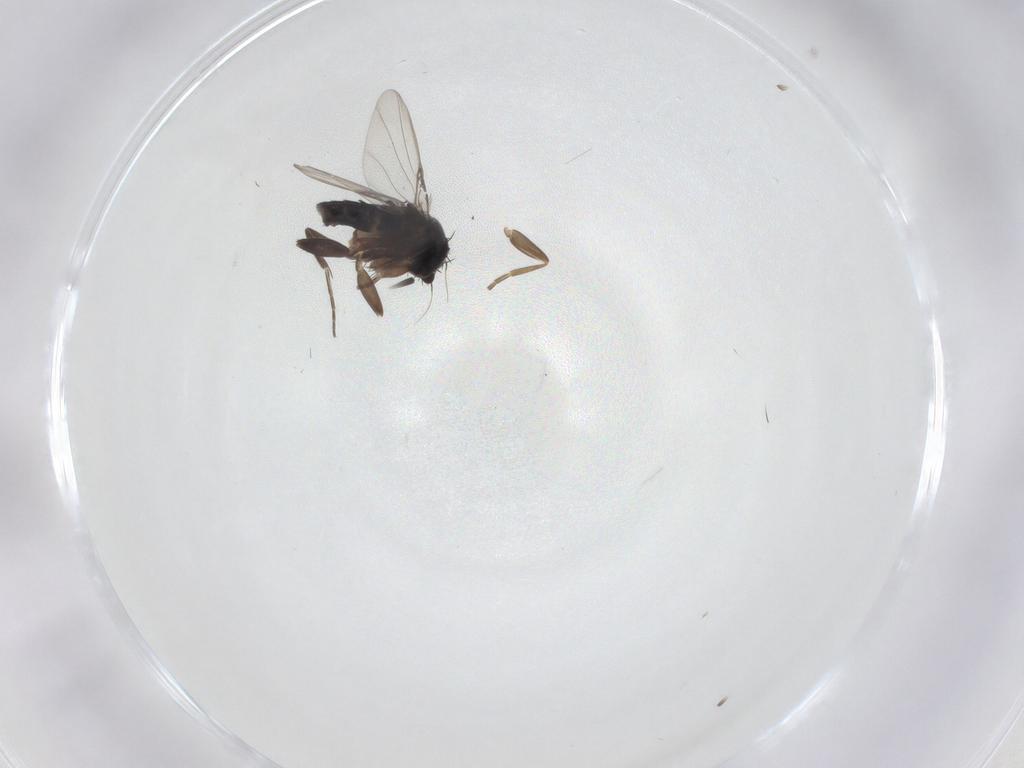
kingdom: Animalia
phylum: Arthropoda
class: Insecta
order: Diptera
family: Anthomyiidae
